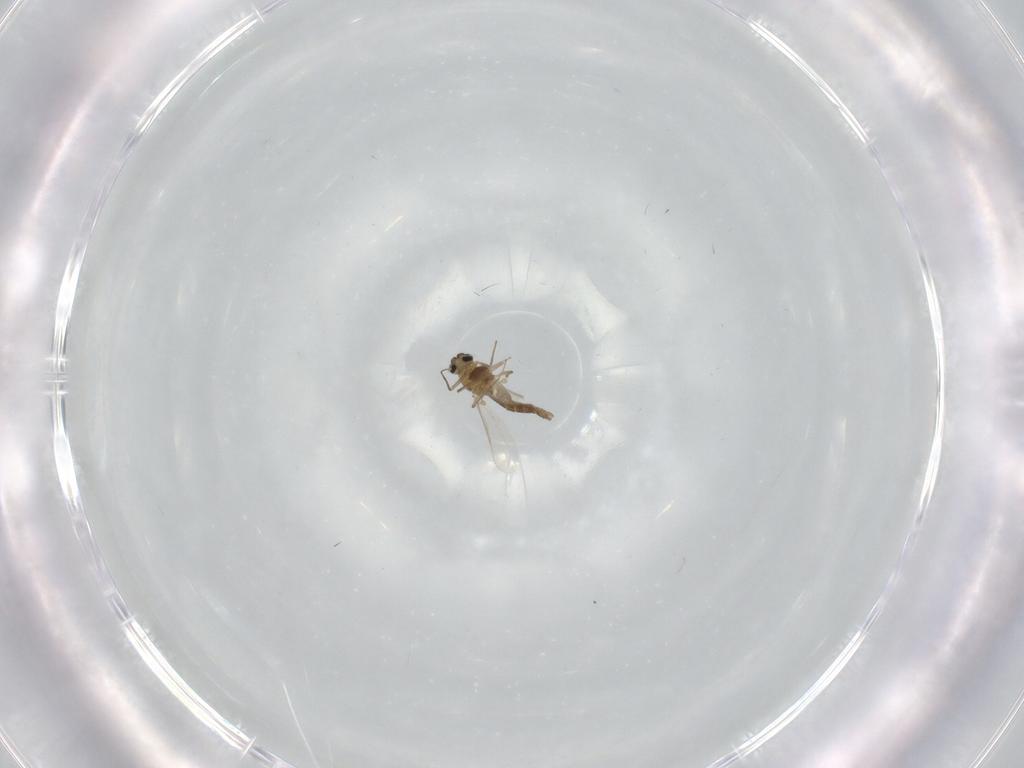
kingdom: Animalia
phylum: Arthropoda
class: Insecta
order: Diptera
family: Chironomidae
